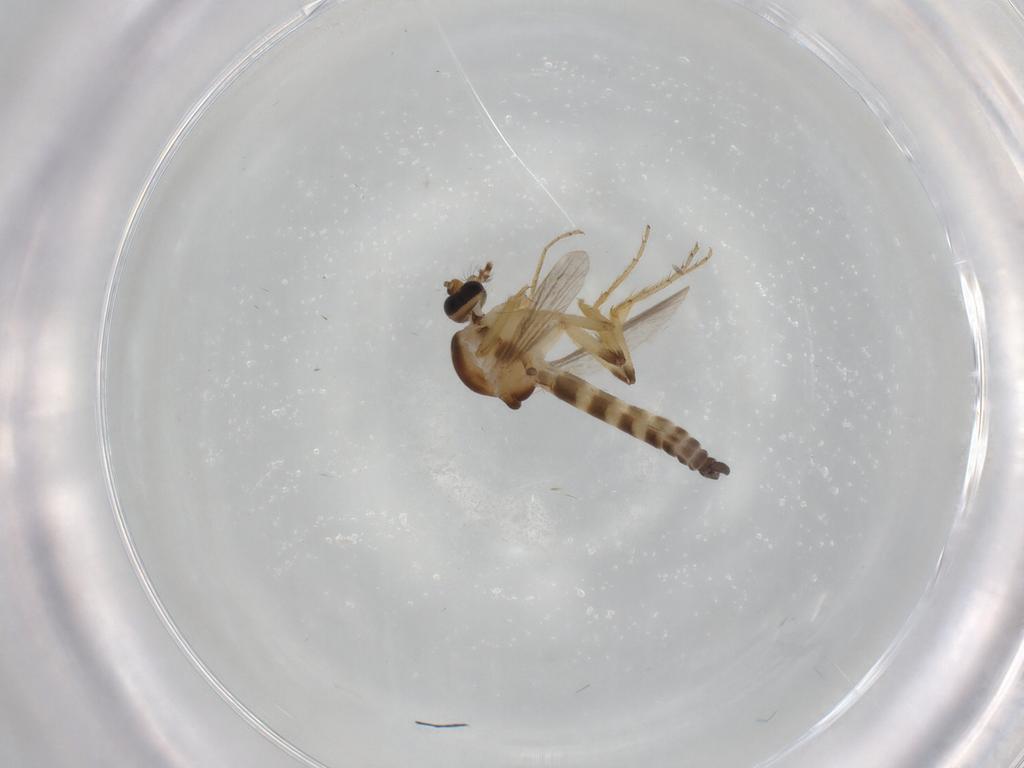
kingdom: Animalia
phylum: Arthropoda
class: Insecta
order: Diptera
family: Ceratopogonidae
